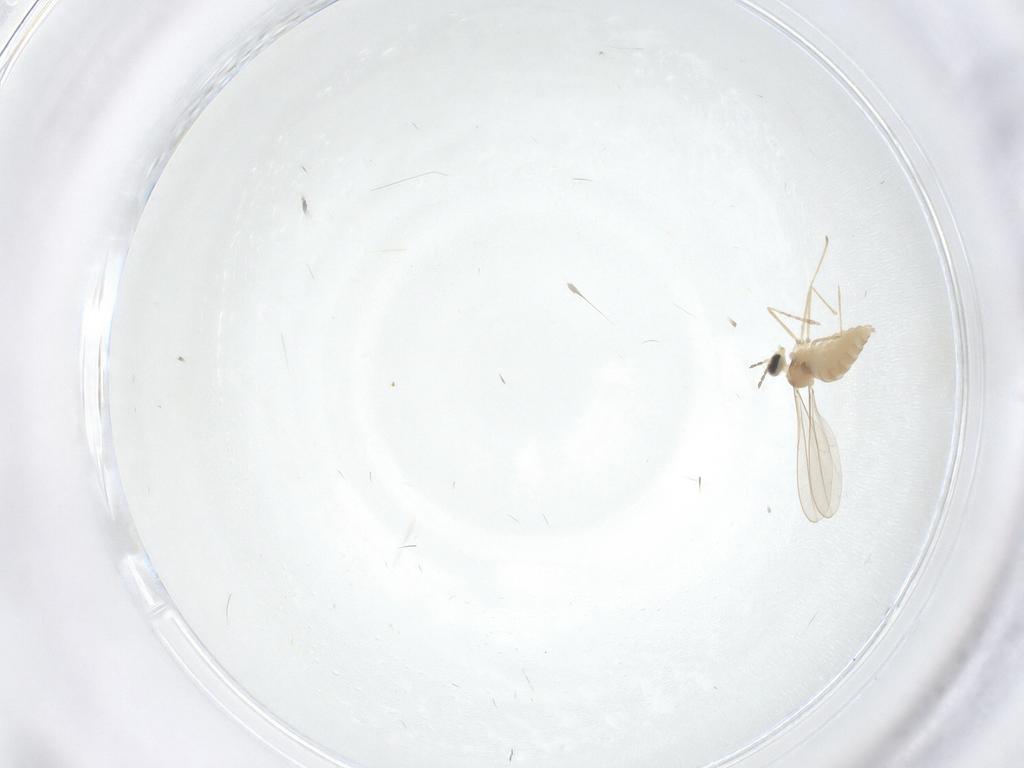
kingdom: Animalia
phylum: Arthropoda
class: Insecta
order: Diptera
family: Cecidomyiidae
